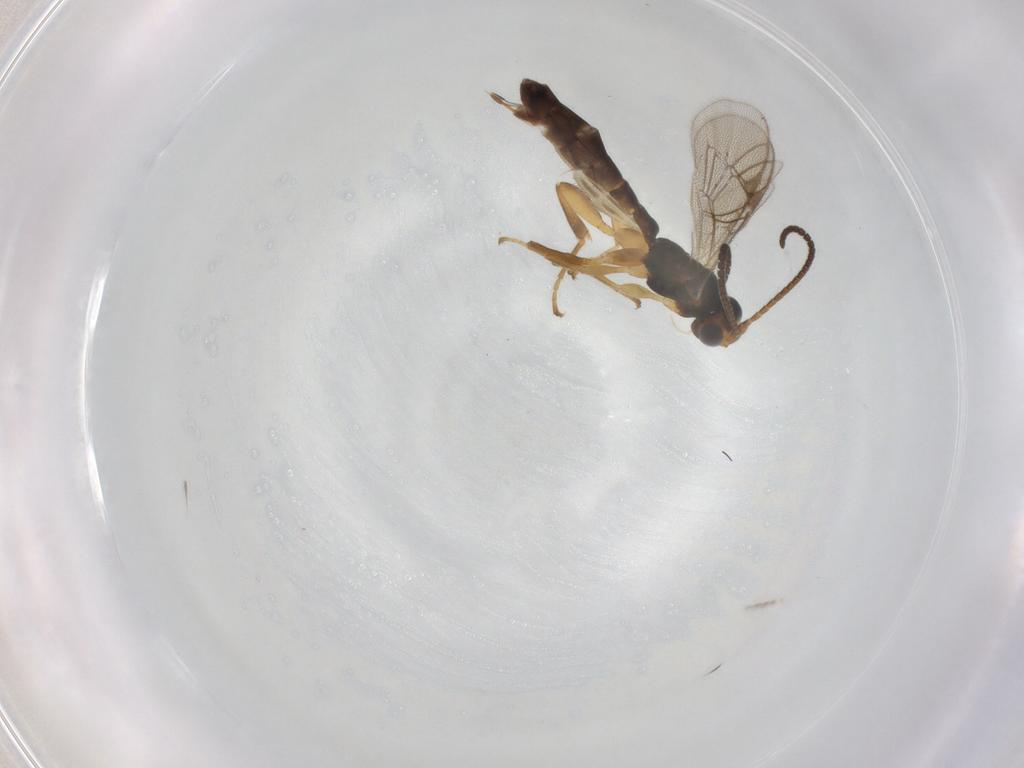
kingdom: Animalia
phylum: Arthropoda
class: Insecta
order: Hymenoptera
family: Ichneumonidae
